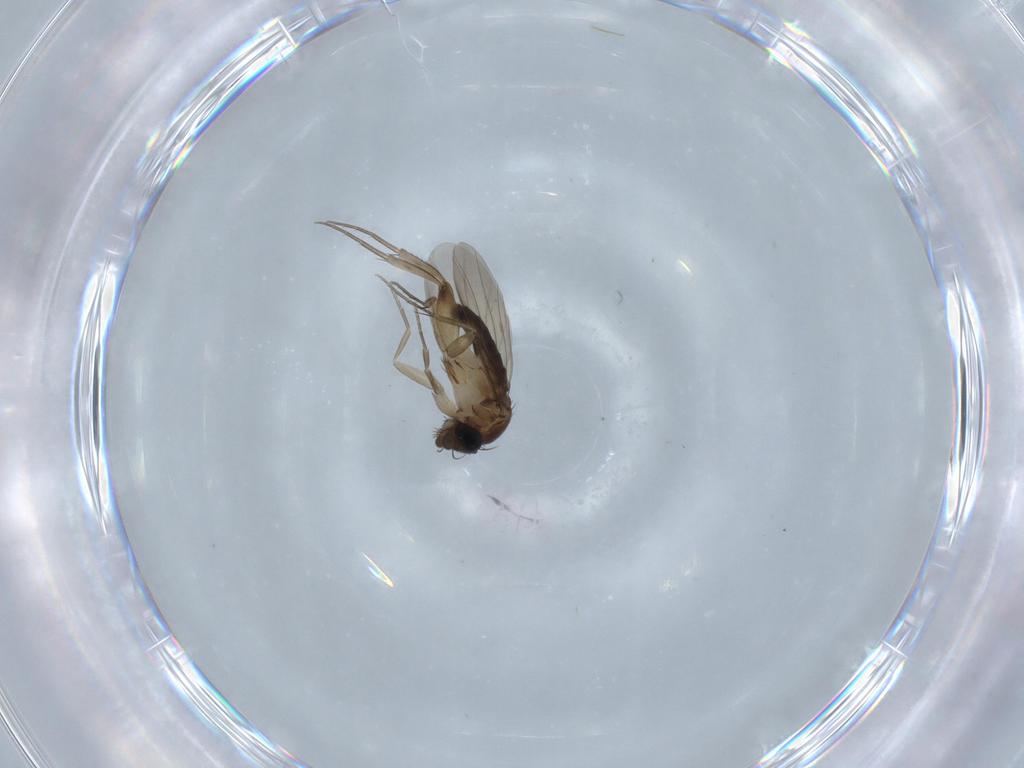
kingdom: Animalia
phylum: Arthropoda
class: Insecta
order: Diptera
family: Phoridae
